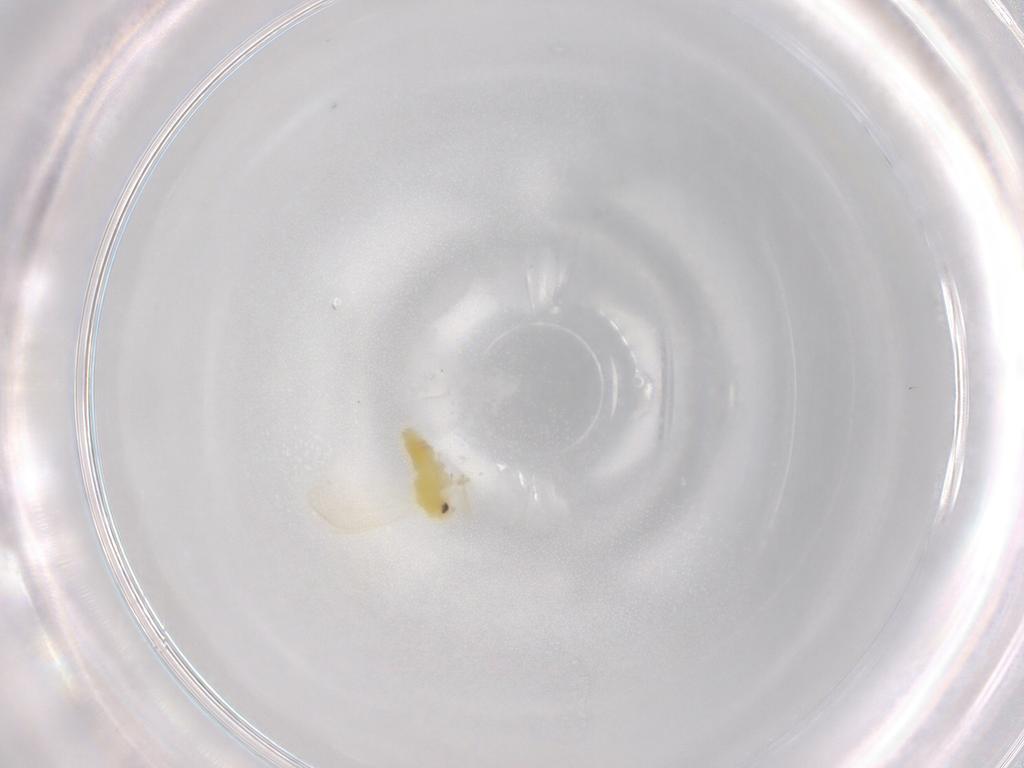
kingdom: Animalia
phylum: Arthropoda
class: Insecta
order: Hemiptera
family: Aleyrodidae
